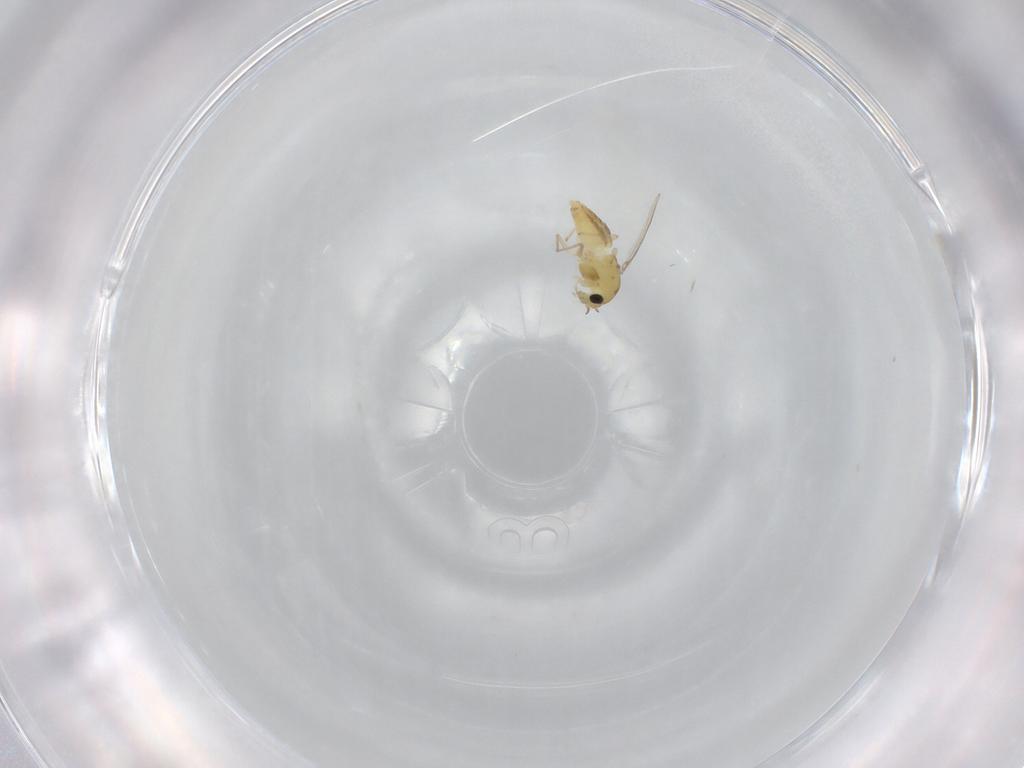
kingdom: Animalia
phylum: Arthropoda
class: Insecta
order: Diptera
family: Chironomidae
